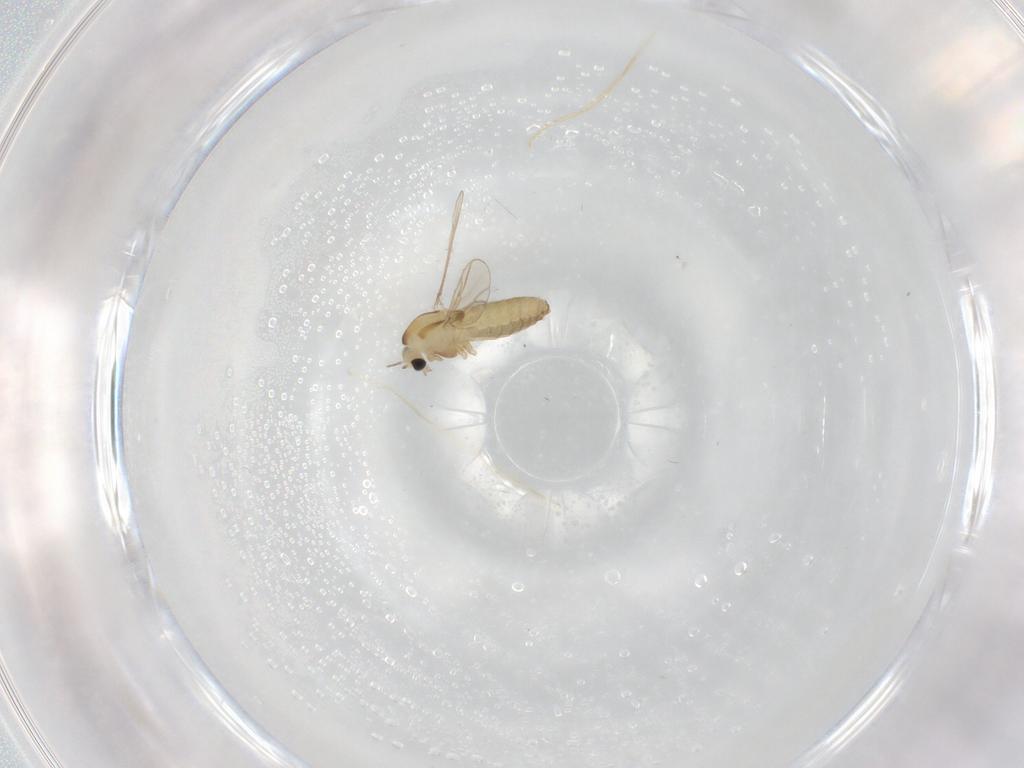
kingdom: Animalia
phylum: Arthropoda
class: Insecta
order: Diptera
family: Chironomidae
